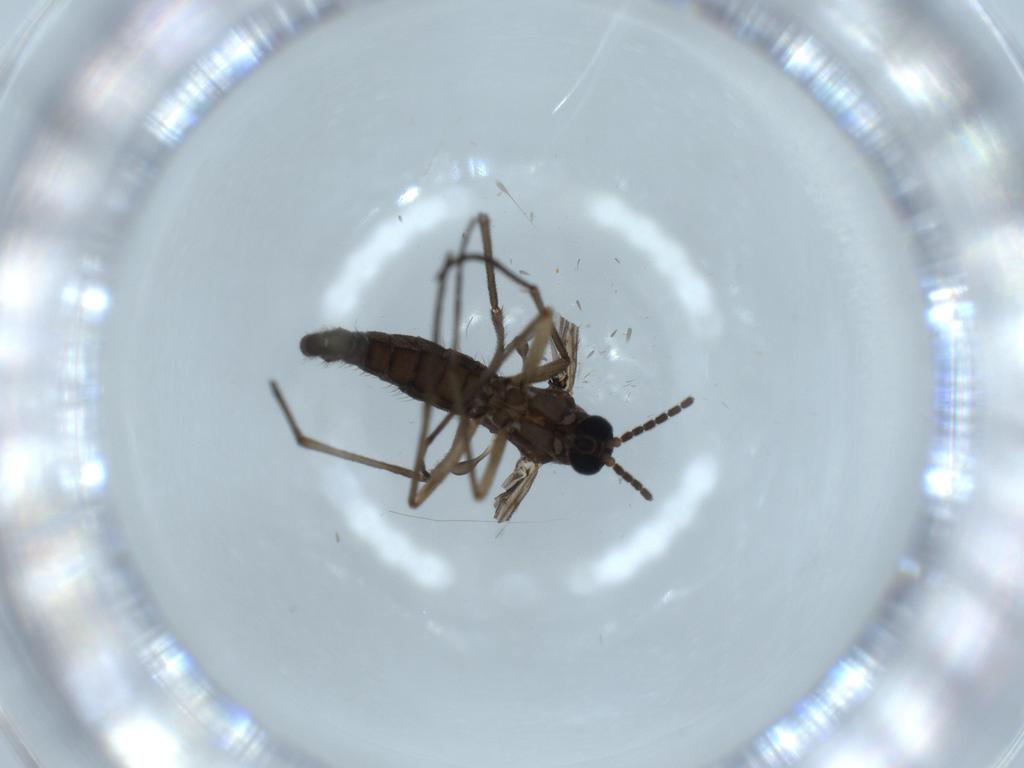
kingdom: Animalia
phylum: Arthropoda
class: Insecta
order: Diptera
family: Sciaridae
